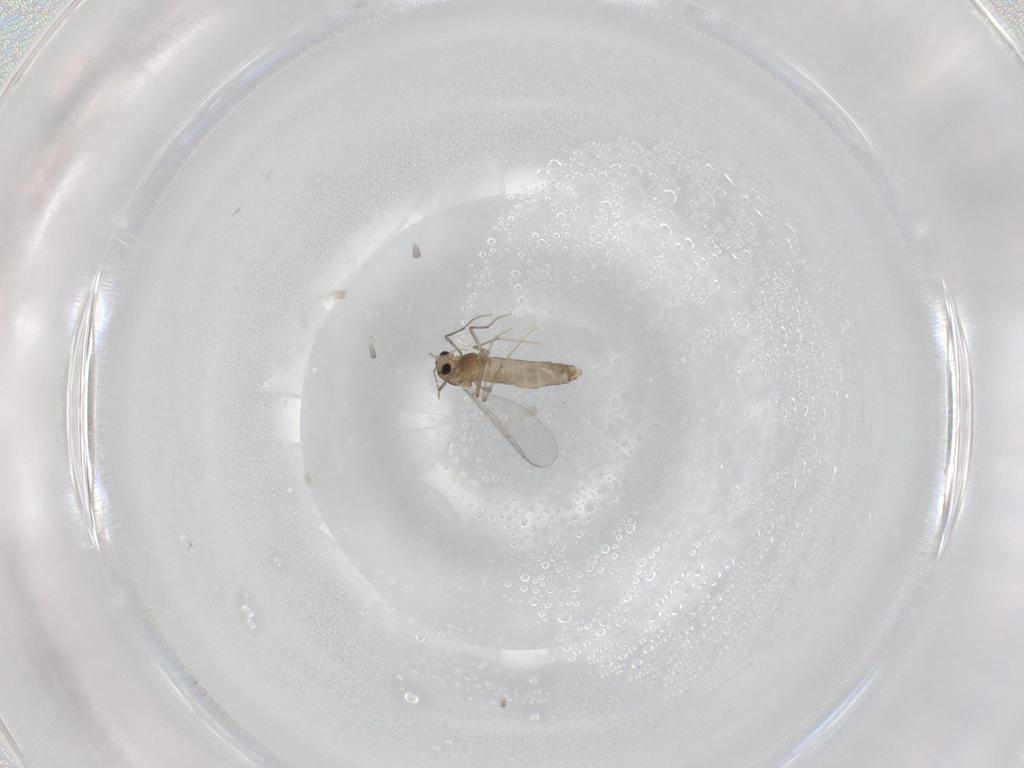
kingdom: Animalia
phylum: Arthropoda
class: Insecta
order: Diptera
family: Chironomidae
